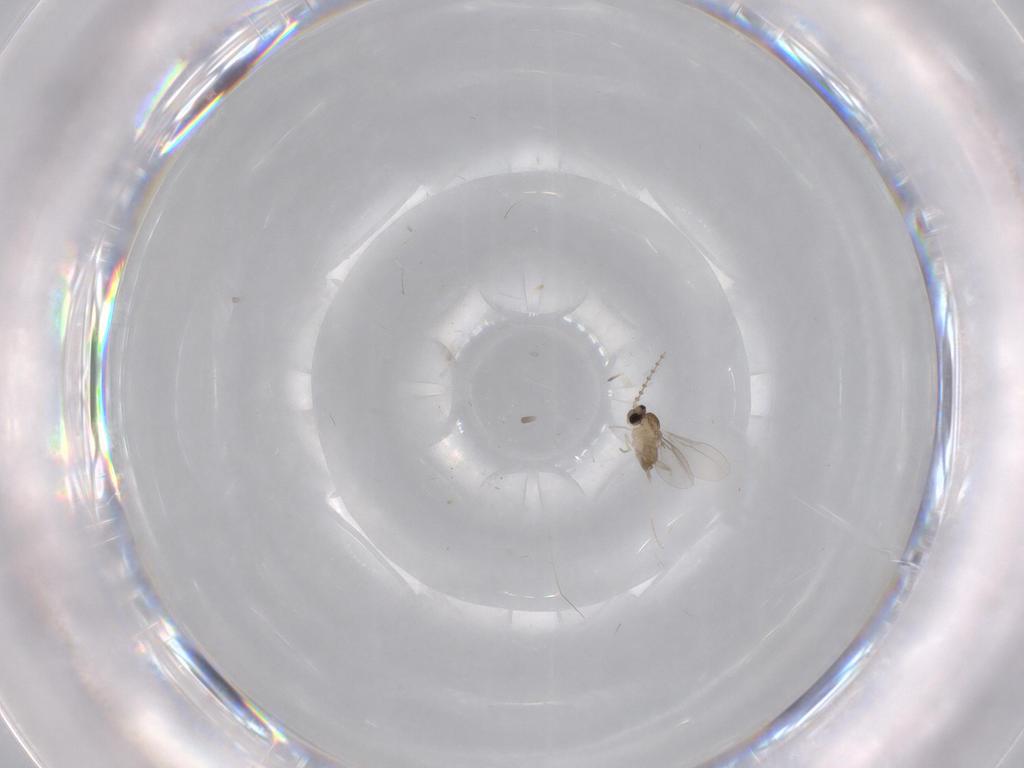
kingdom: Animalia
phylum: Arthropoda
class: Insecta
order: Diptera
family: Cecidomyiidae
